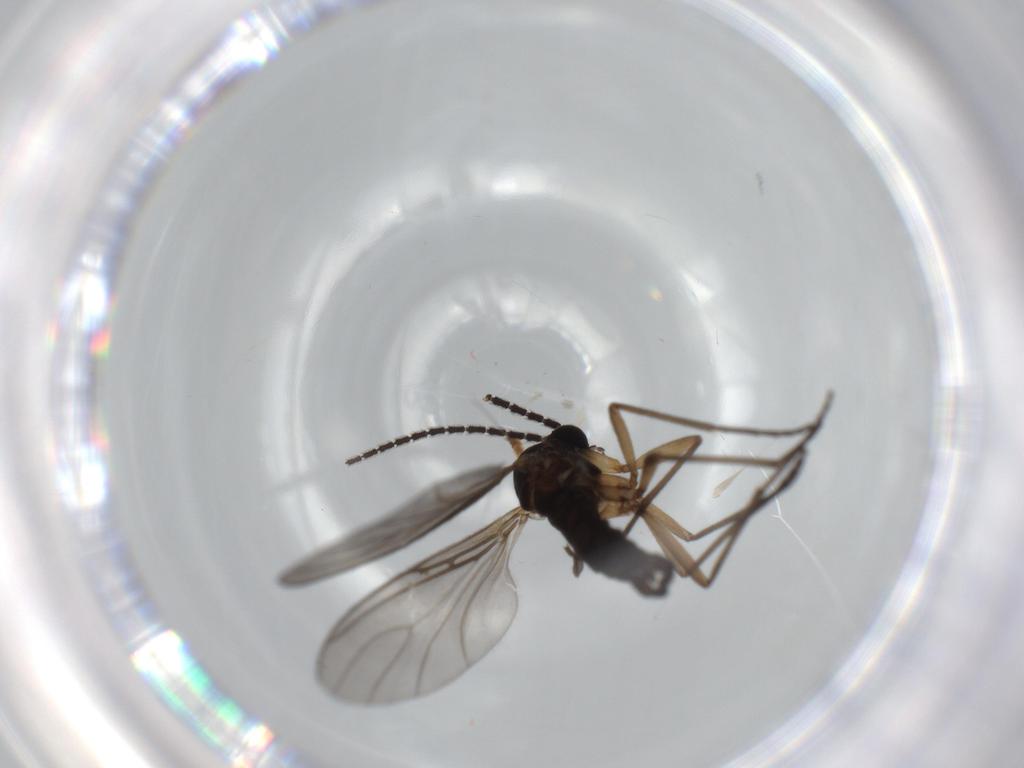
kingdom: Animalia
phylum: Arthropoda
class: Insecta
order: Diptera
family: Sciaridae
